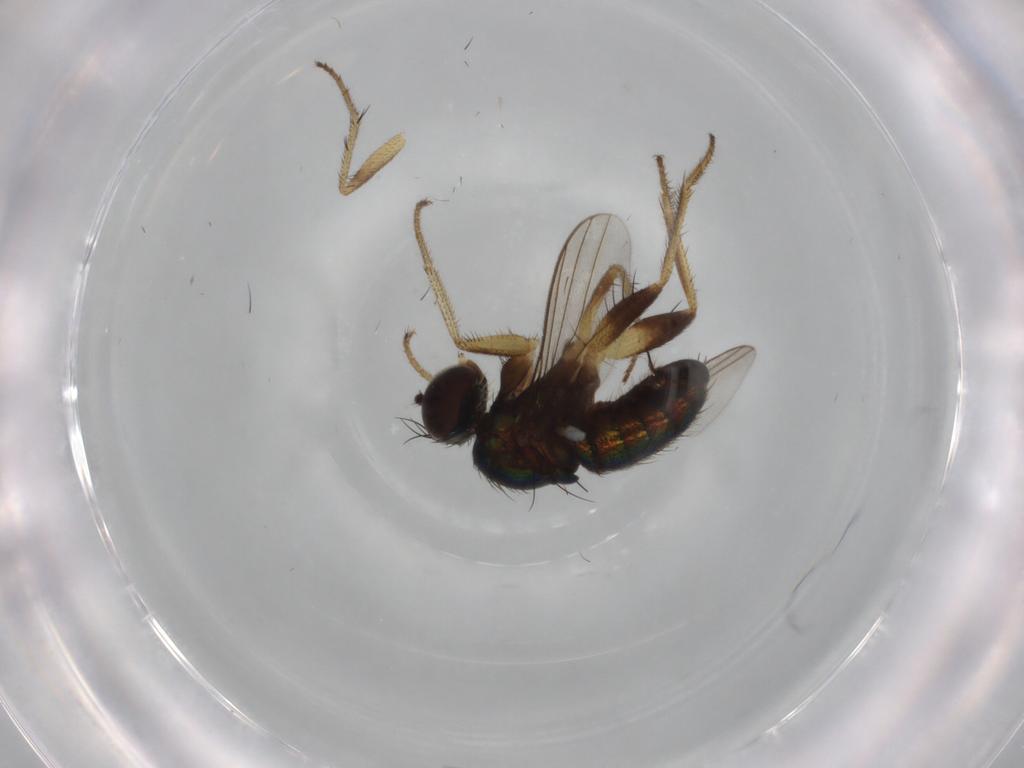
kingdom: Animalia
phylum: Arthropoda
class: Insecta
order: Diptera
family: Dolichopodidae
